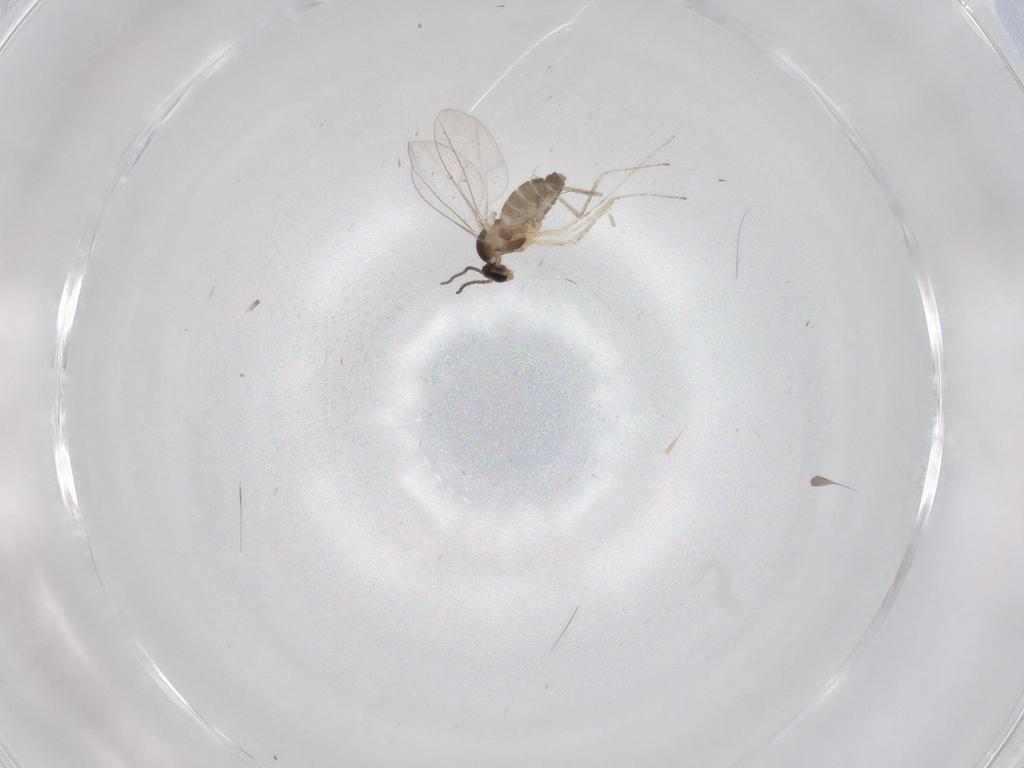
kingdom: Animalia
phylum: Arthropoda
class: Insecta
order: Diptera
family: Cecidomyiidae
